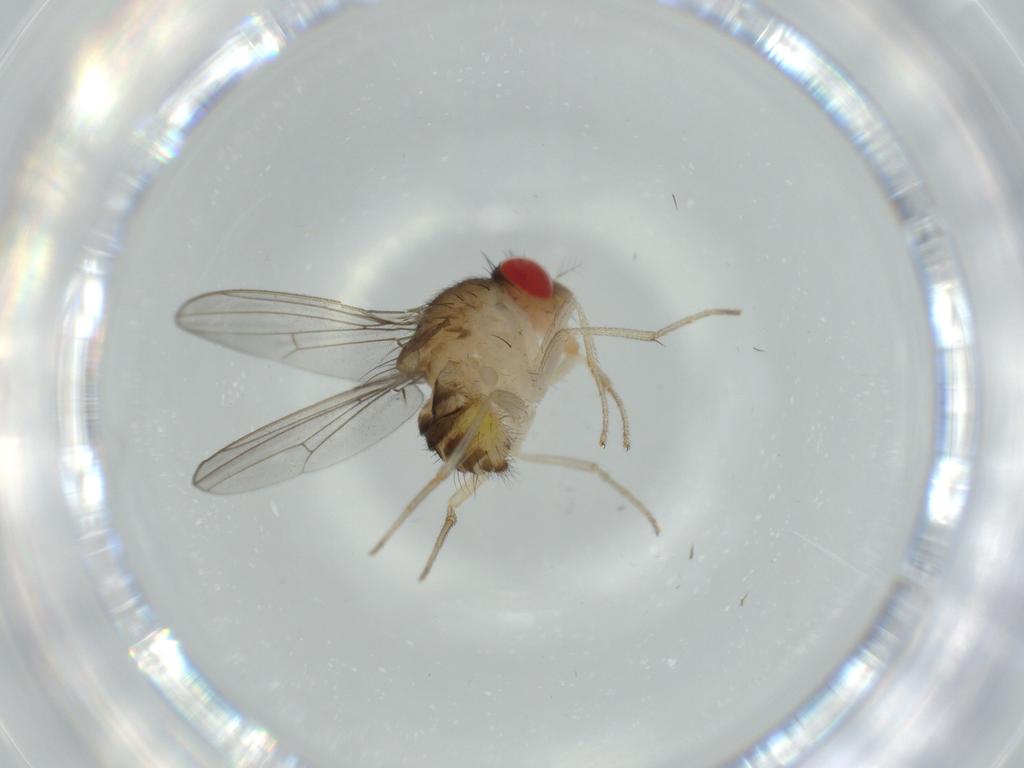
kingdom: Animalia
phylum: Arthropoda
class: Insecta
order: Diptera
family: Drosophilidae
